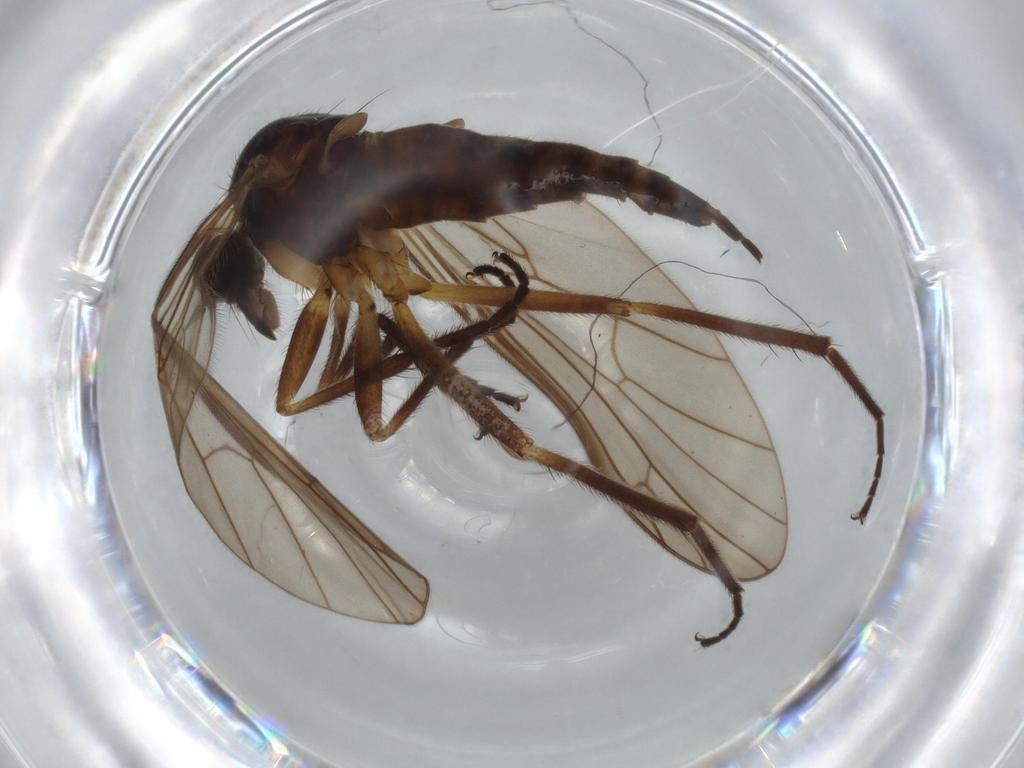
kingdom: Animalia
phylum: Arthropoda
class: Insecta
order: Diptera
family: Empididae
